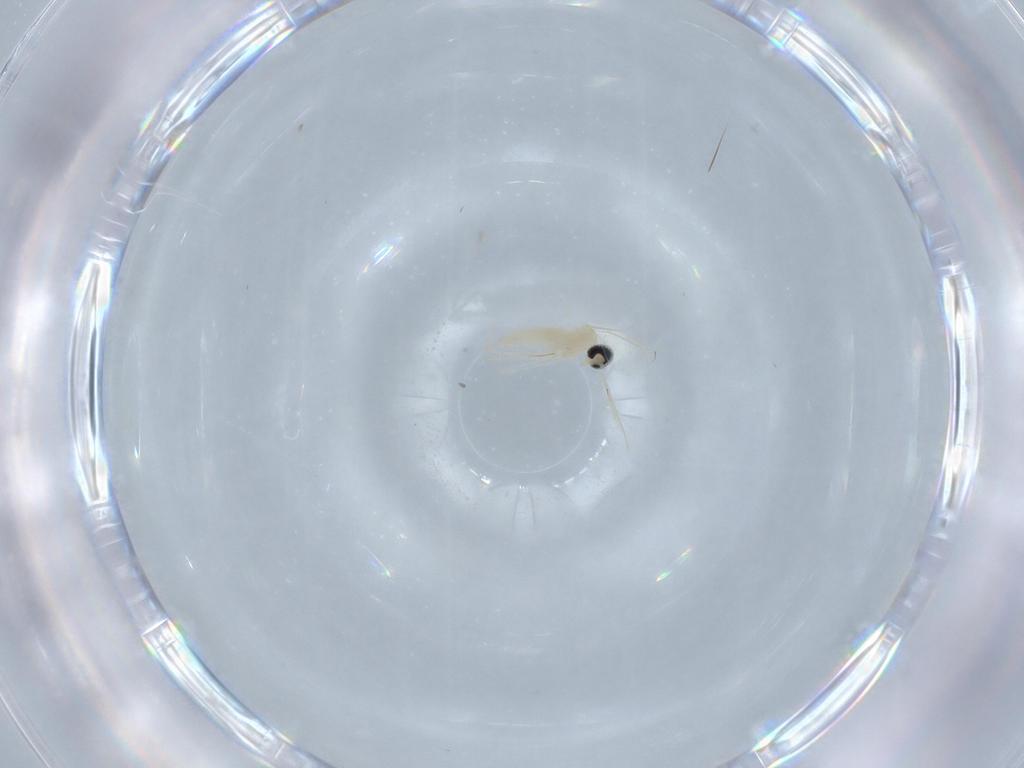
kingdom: Animalia
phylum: Arthropoda
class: Insecta
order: Diptera
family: Cecidomyiidae
